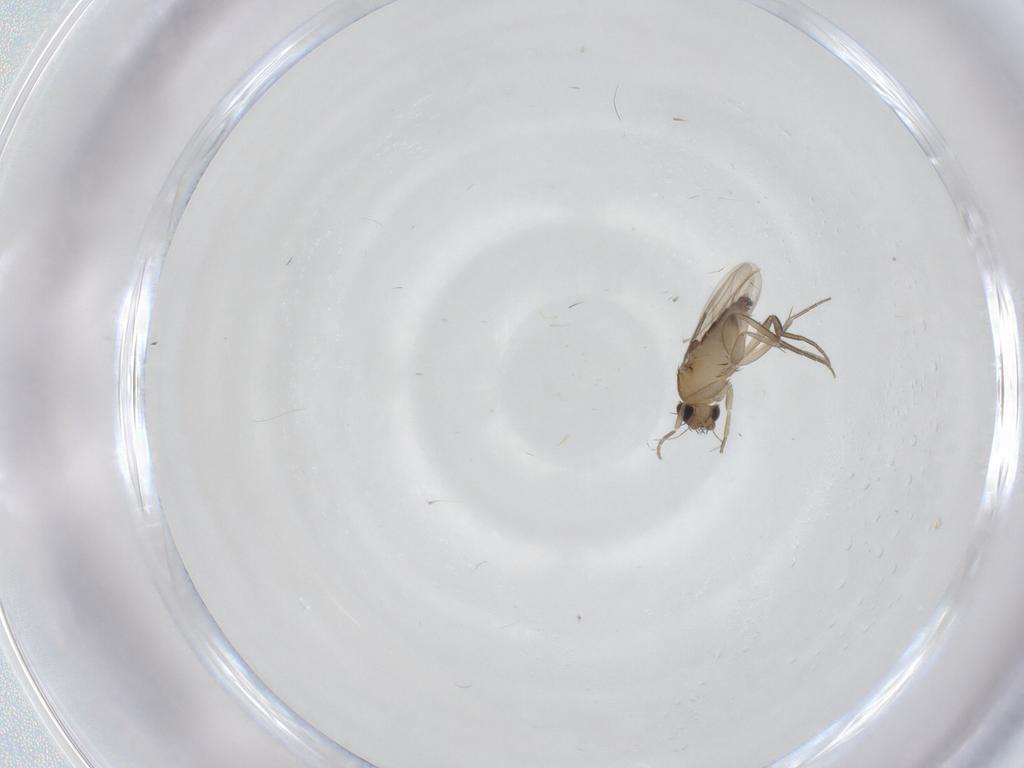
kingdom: Animalia
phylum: Arthropoda
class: Insecta
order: Diptera
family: Phoridae
